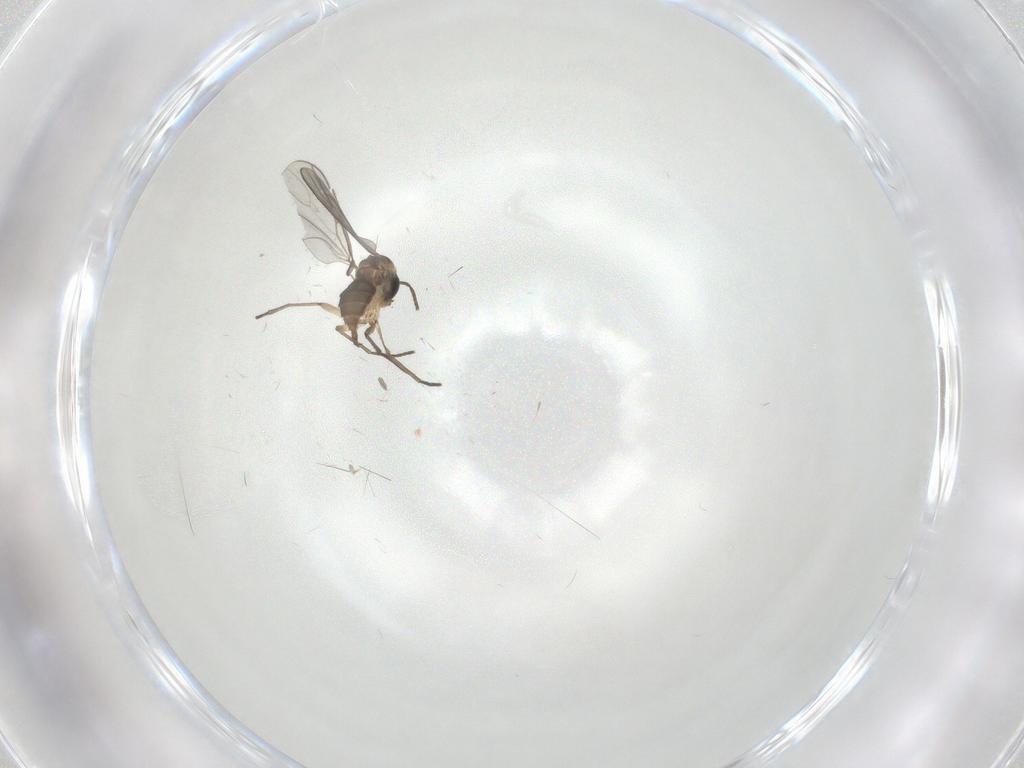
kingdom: Animalia
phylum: Arthropoda
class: Insecta
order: Diptera
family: Sciaridae
